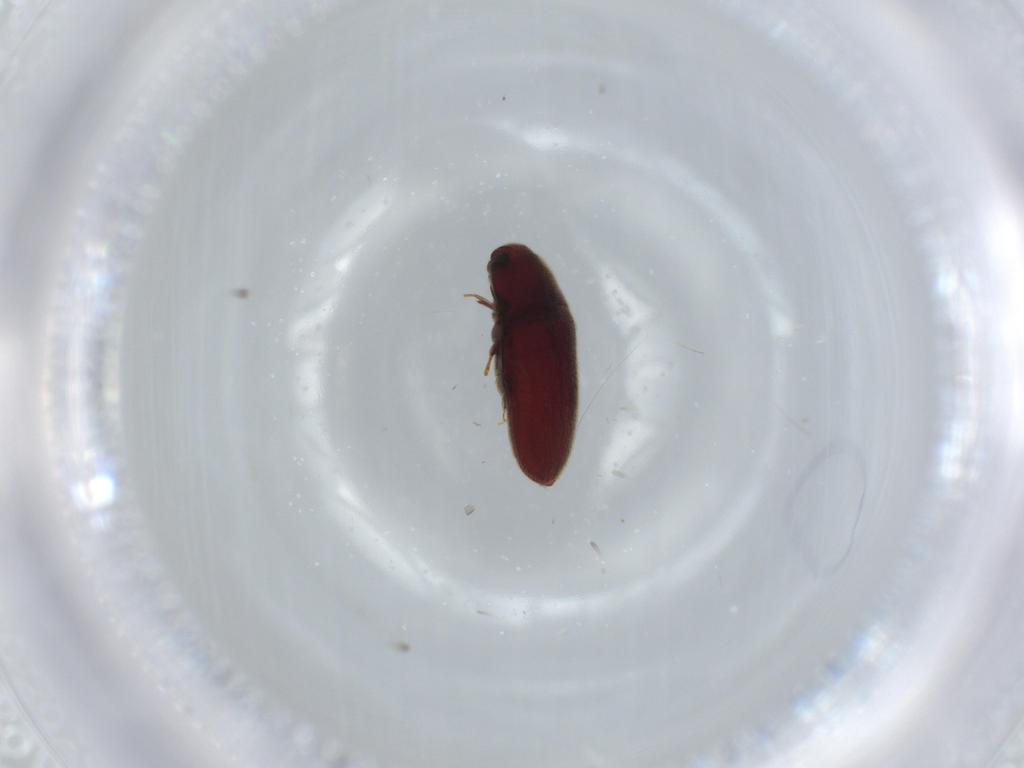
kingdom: Animalia
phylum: Arthropoda
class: Insecta
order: Coleoptera
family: Throscidae
